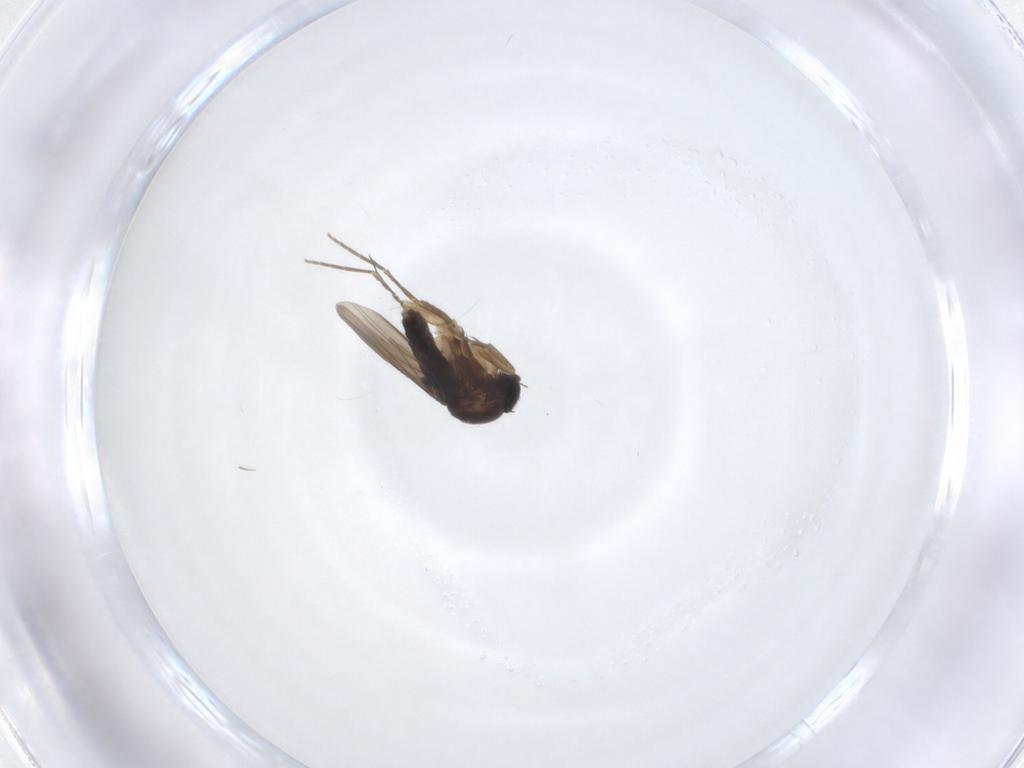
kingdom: Animalia
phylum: Arthropoda
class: Insecta
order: Diptera
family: Phoridae
